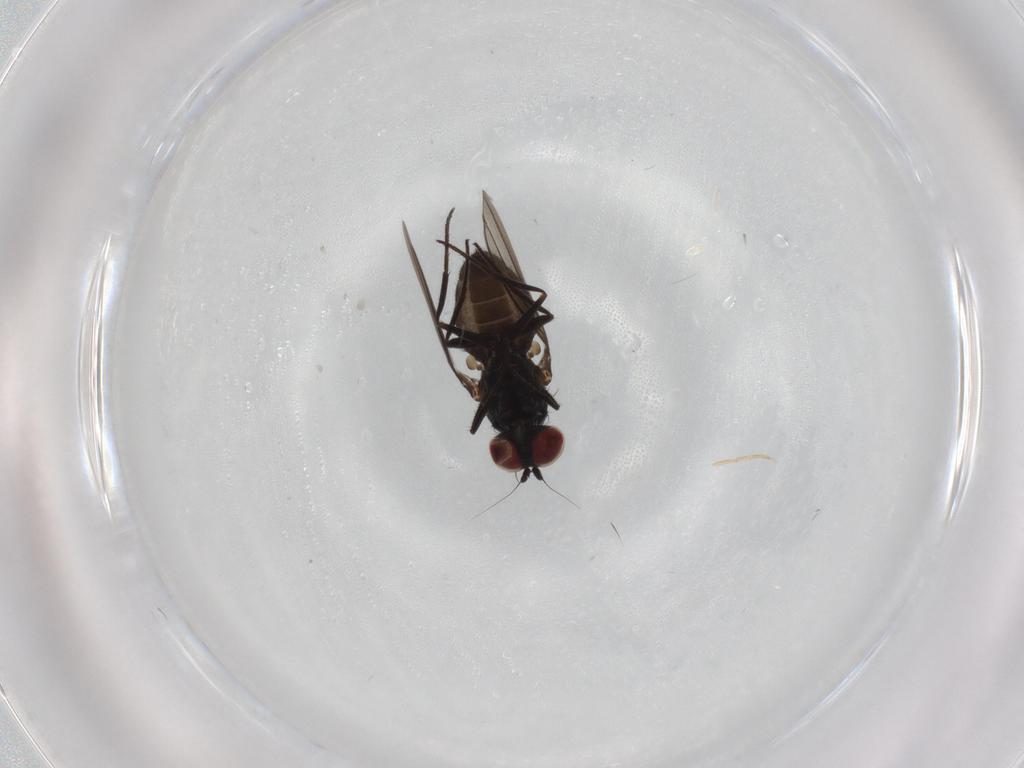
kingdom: Animalia
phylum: Arthropoda
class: Insecta
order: Diptera
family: Dolichopodidae
